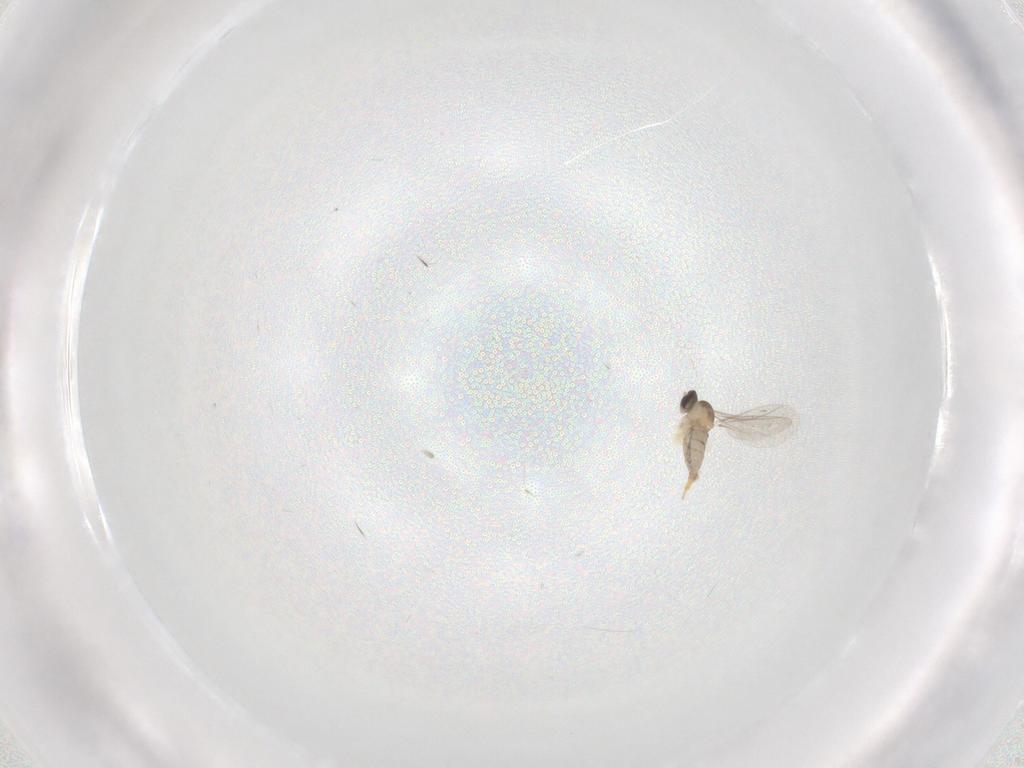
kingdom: Animalia
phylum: Arthropoda
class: Insecta
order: Diptera
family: Cecidomyiidae
